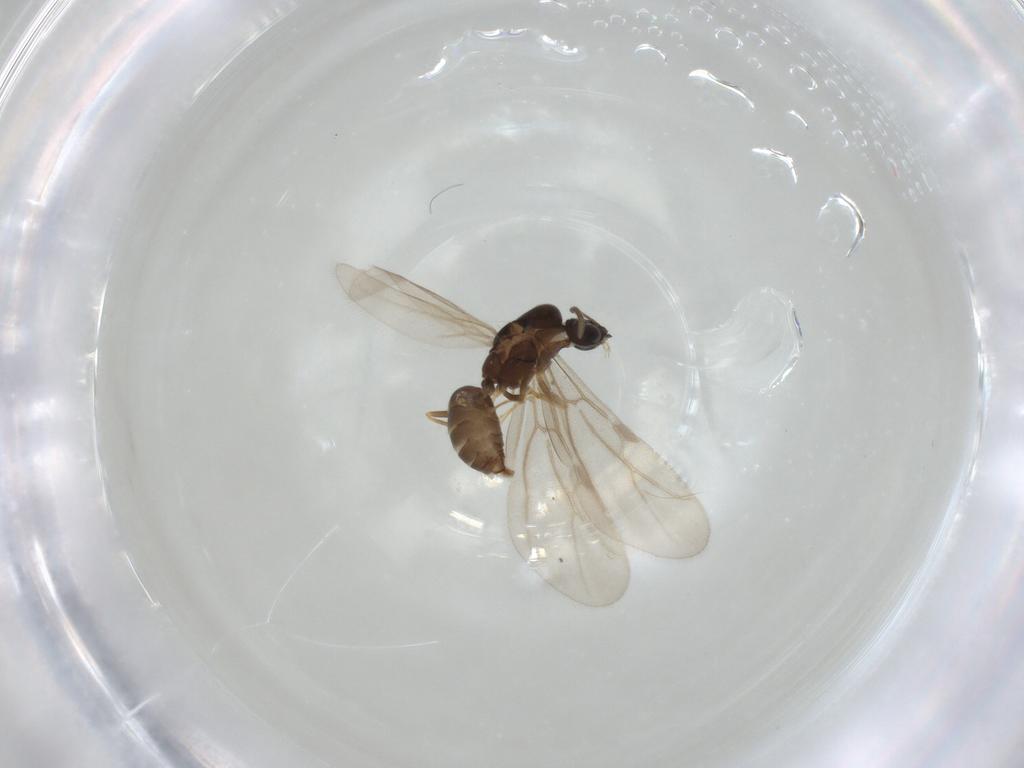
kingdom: Animalia
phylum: Arthropoda
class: Insecta
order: Hymenoptera
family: Formicidae
